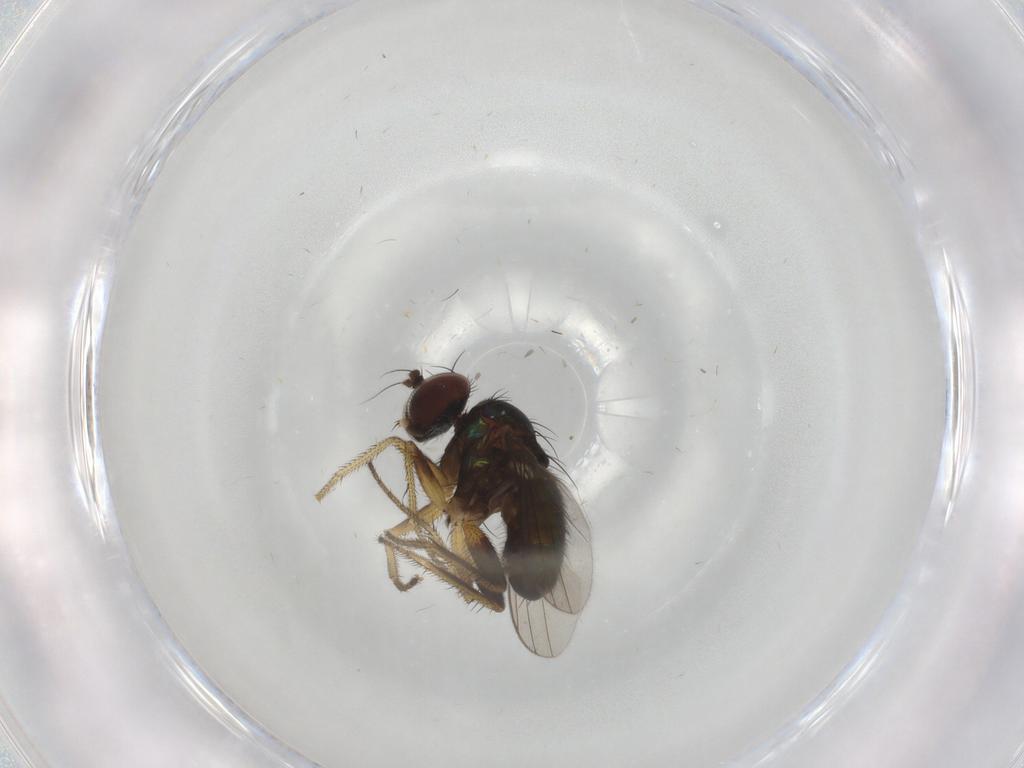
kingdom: Animalia
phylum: Arthropoda
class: Insecta
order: Diptera
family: Dolichopodidae
